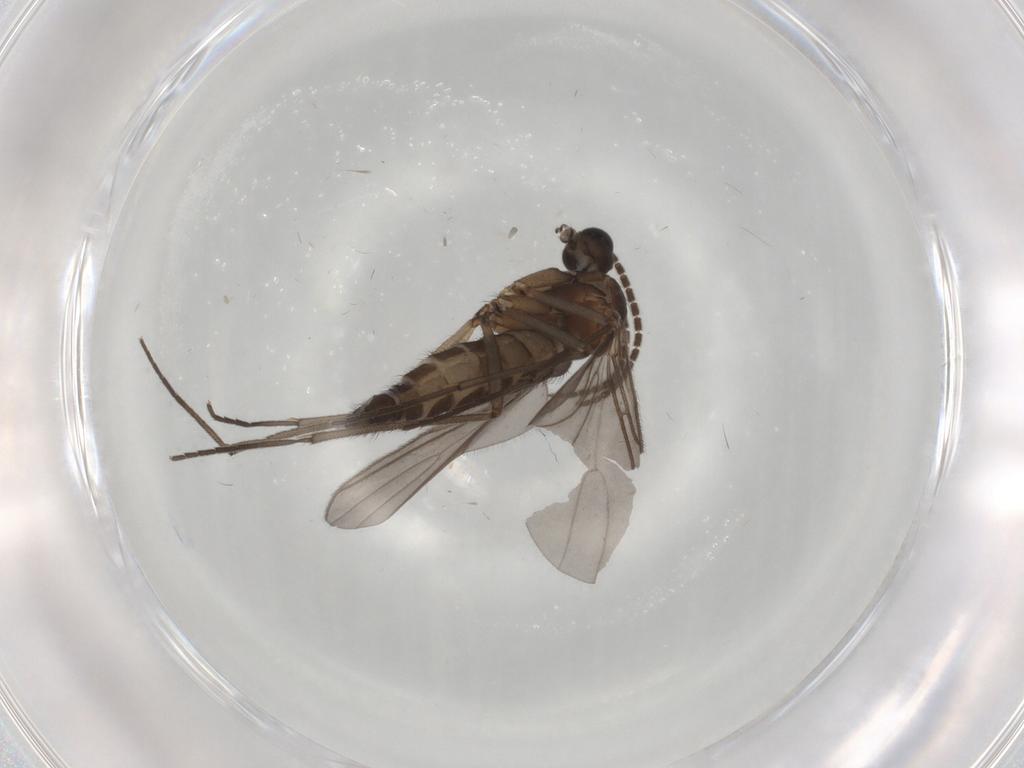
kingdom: Animalia
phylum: Arthropoda
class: Insecta
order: Diptera
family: Sciaridae
